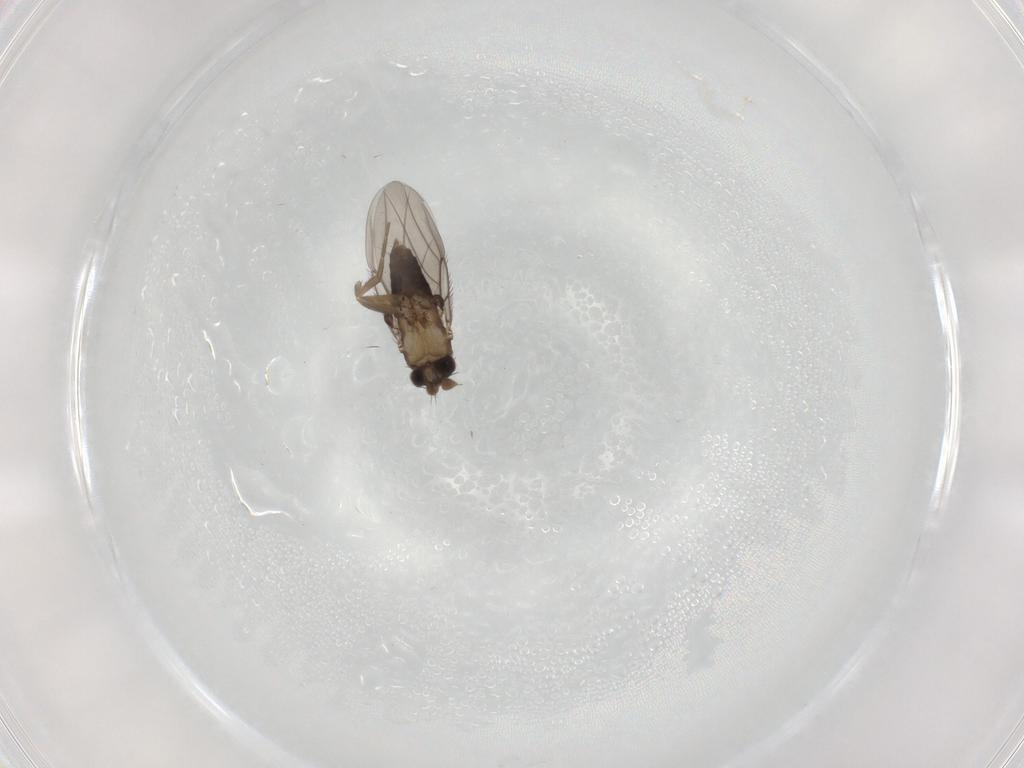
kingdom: Animalia
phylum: Arthropoda
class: Insecta
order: Diptera
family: Phoridae
